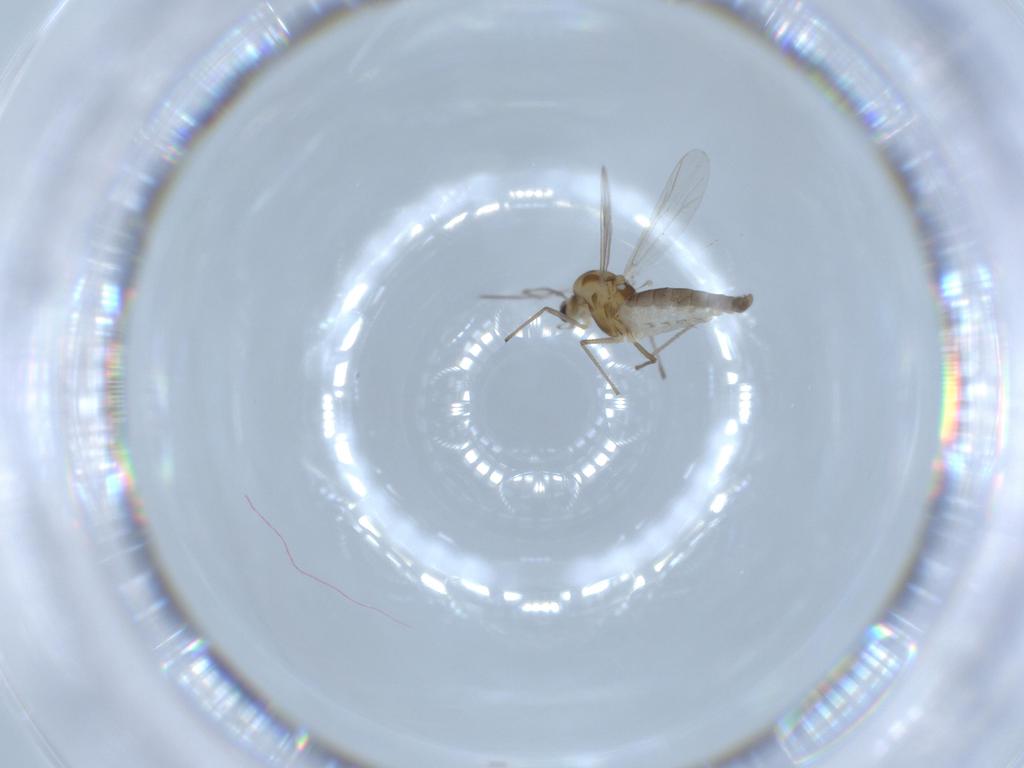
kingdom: Animalia
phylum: Arthropoda
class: Insecta
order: Diptera
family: Chironomidae
